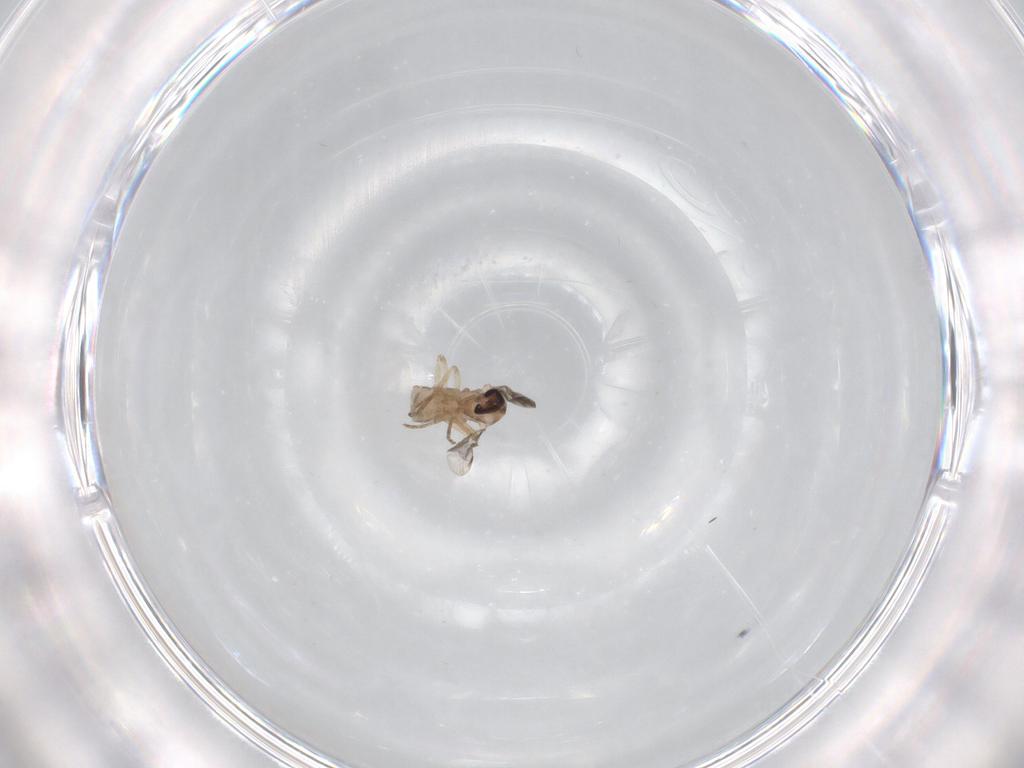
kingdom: Animalia
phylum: Arthropoda
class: Insecta
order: Diptera
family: Ceratopogonidae
